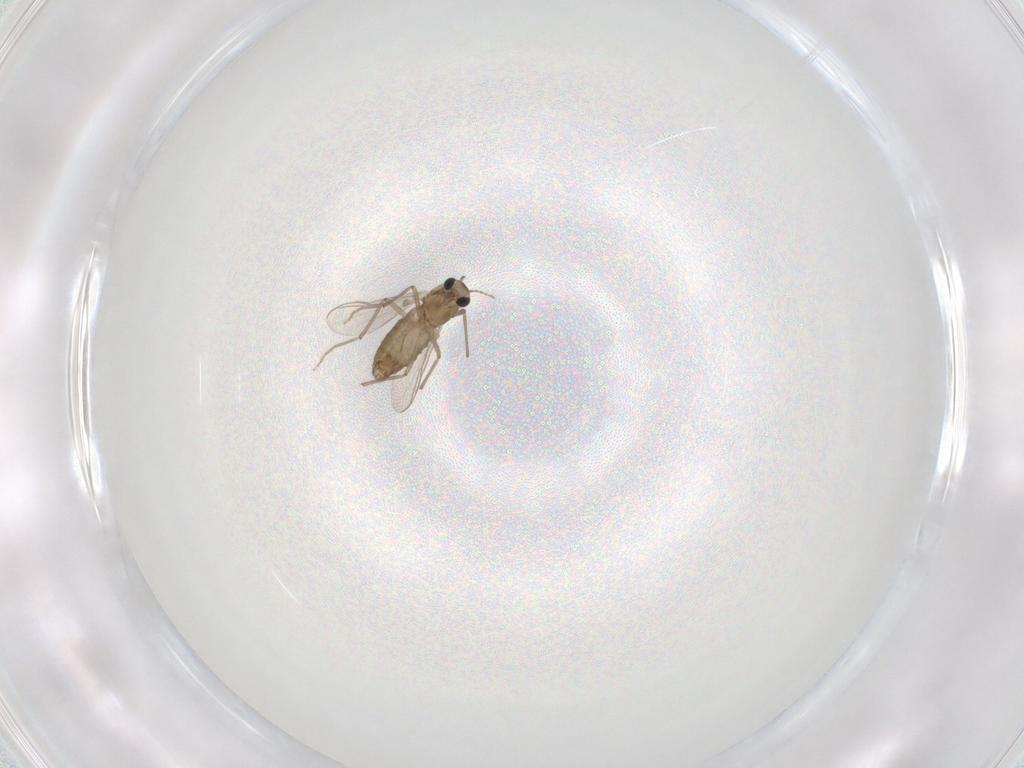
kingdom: Animalia
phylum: Arthropoda
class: Insecta
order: Diptera
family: Chironomidae
